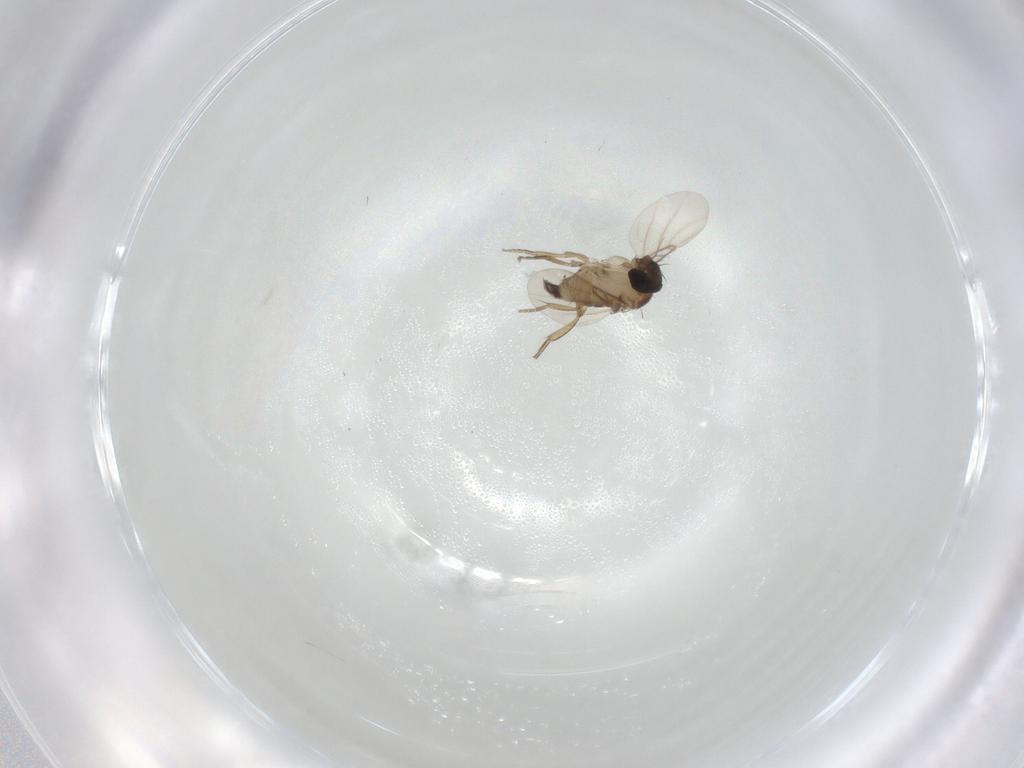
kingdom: Animalia
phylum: Arthropoda
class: Insecta
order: Diptera
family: Phoridae
